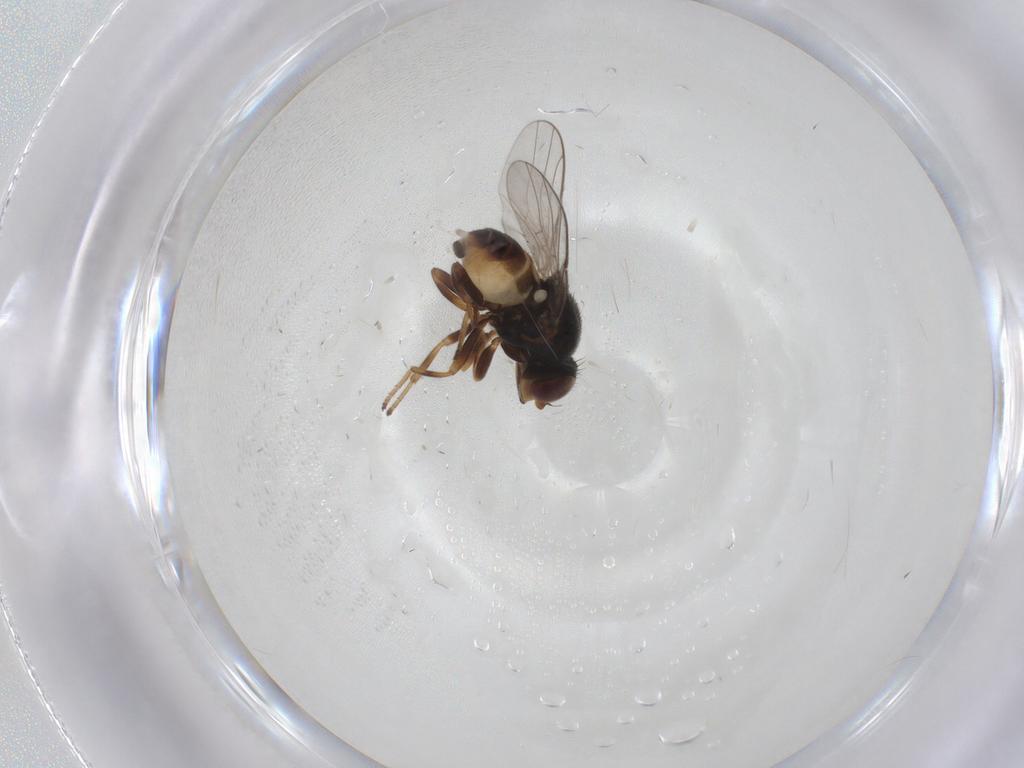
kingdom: Animalia
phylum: Arthropoda
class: Insecta
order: Diptera
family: Chloropidae
